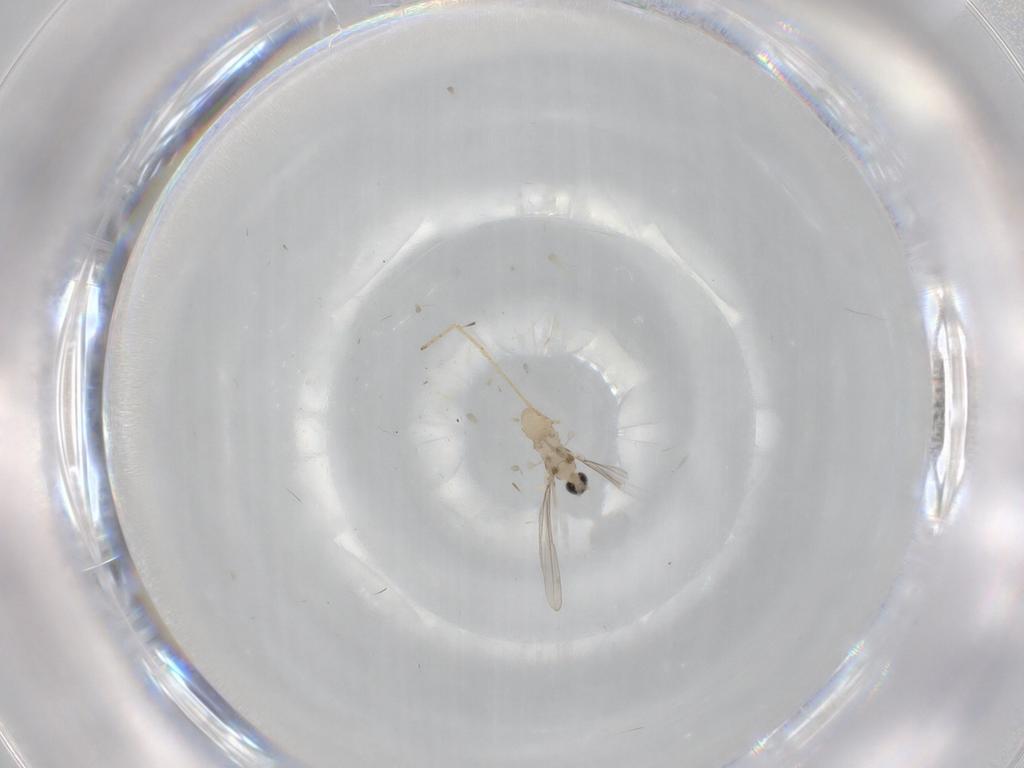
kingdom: Animalia
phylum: Arthropoda
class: Insecta
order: Diptera
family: Cecidomyiidae
